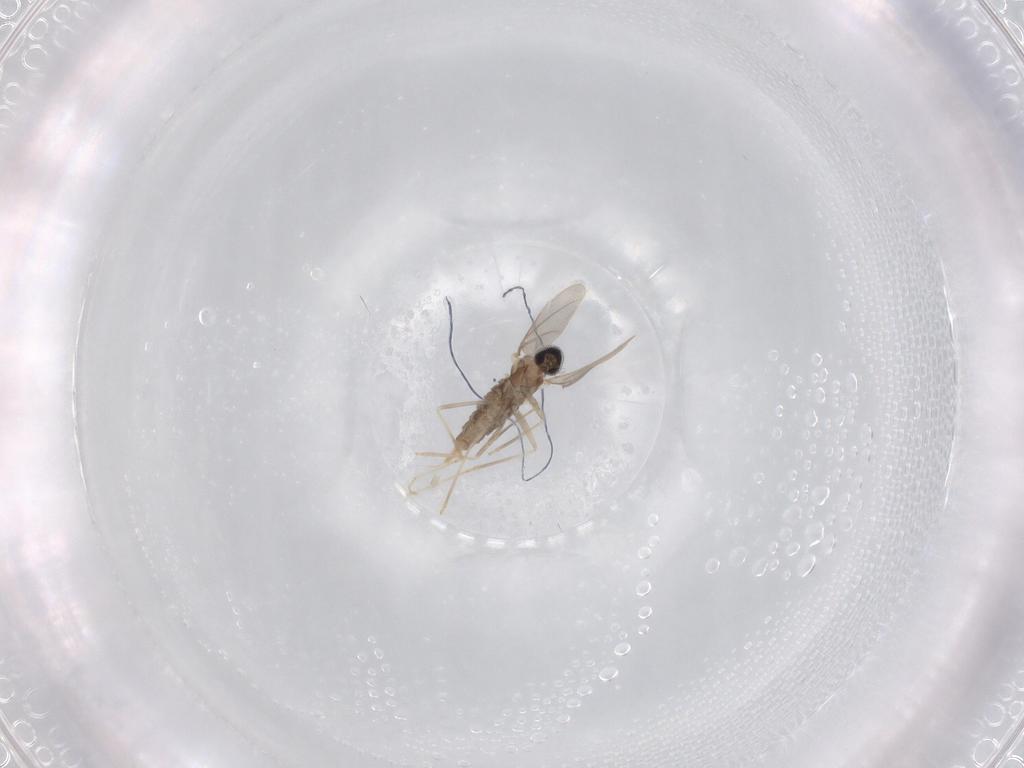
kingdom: Animalia
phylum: Arthropoda
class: Insecta
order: Diptera
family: Cecidomyiidae
